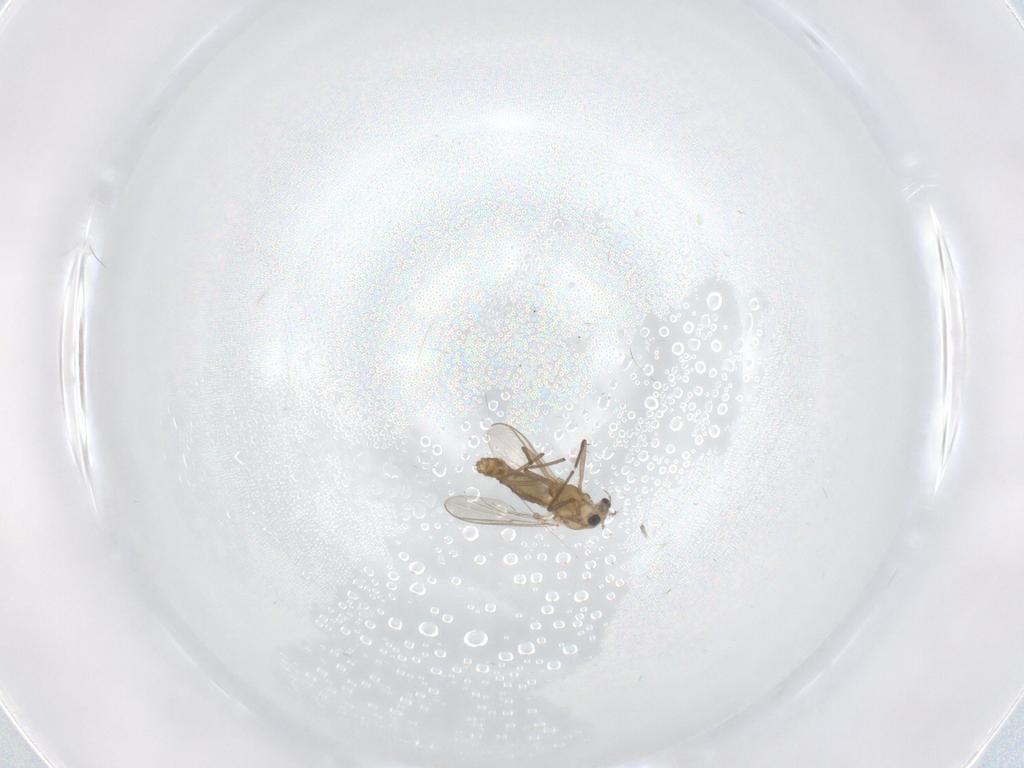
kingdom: Animalia
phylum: Arthropoda
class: Insecta
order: Diptera
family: Chironomidae
